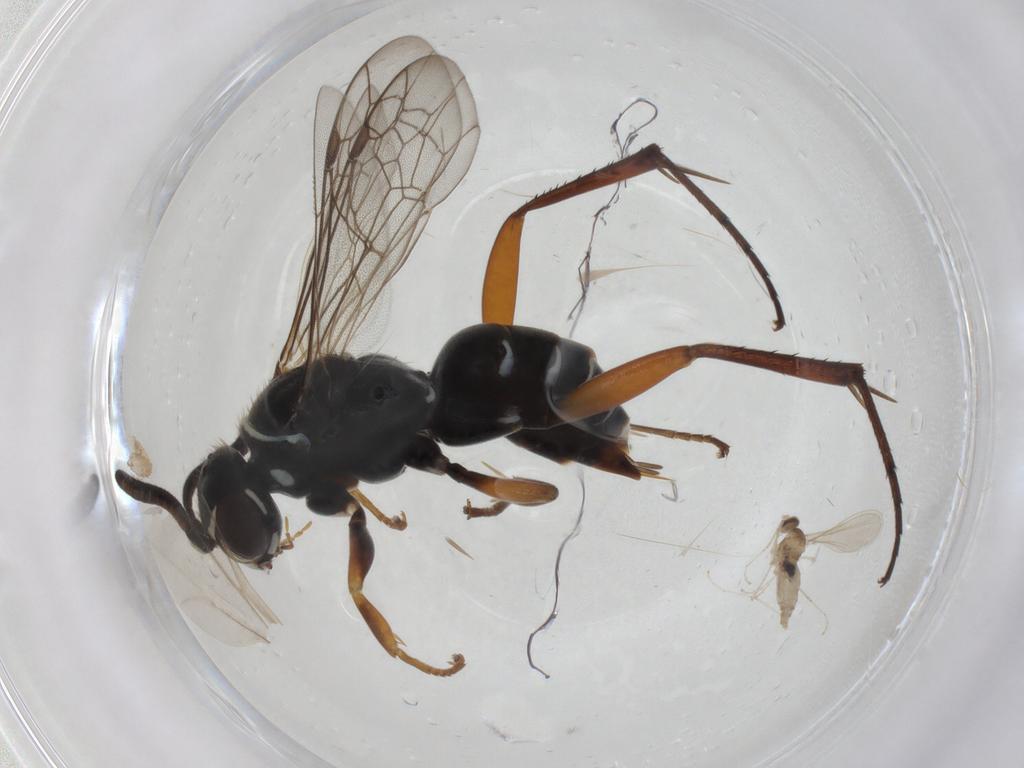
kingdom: Animalia
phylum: Arthropoda
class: Insecta
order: Diptera
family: Cecidomyiidae
